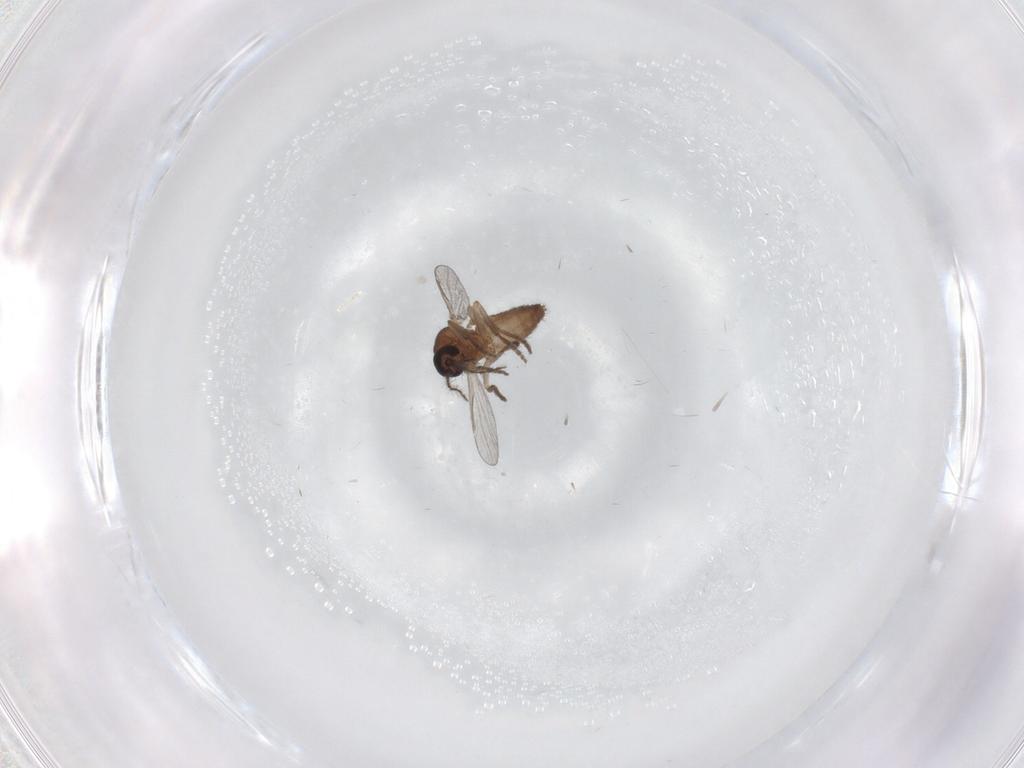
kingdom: Animalia
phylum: Arthropoda
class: Insecta
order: Diptera
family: Ceratopogonidae
